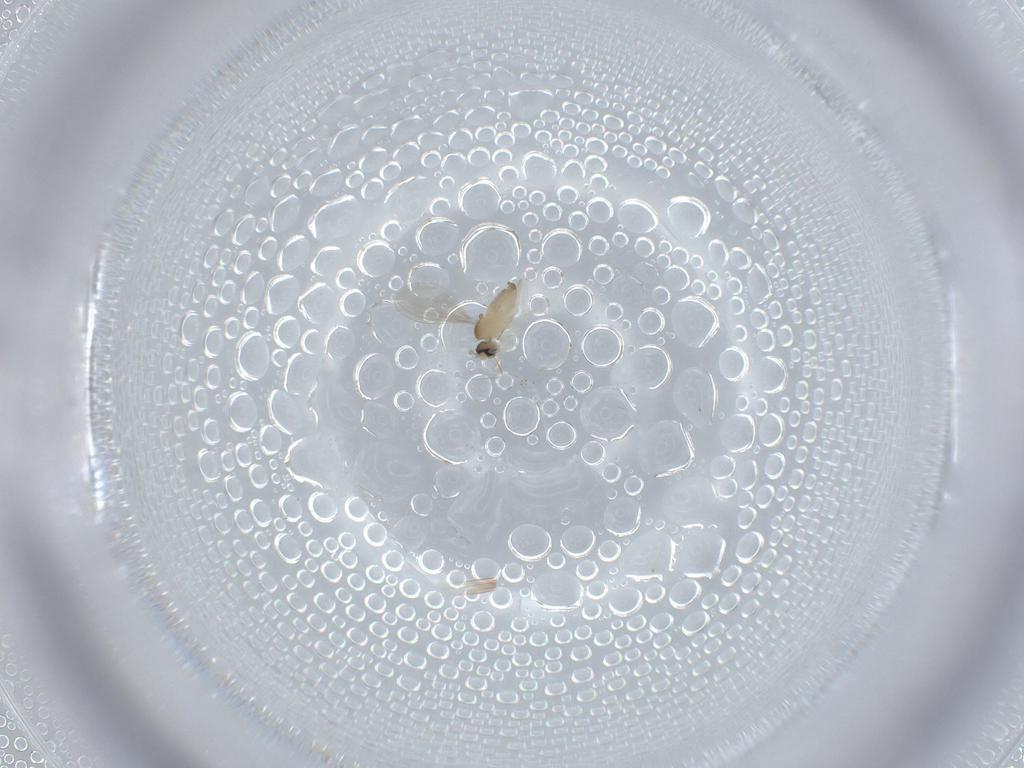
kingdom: Animalia
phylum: Arthropoda
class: Insecta
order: Diptera
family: Cecidomyiidae
